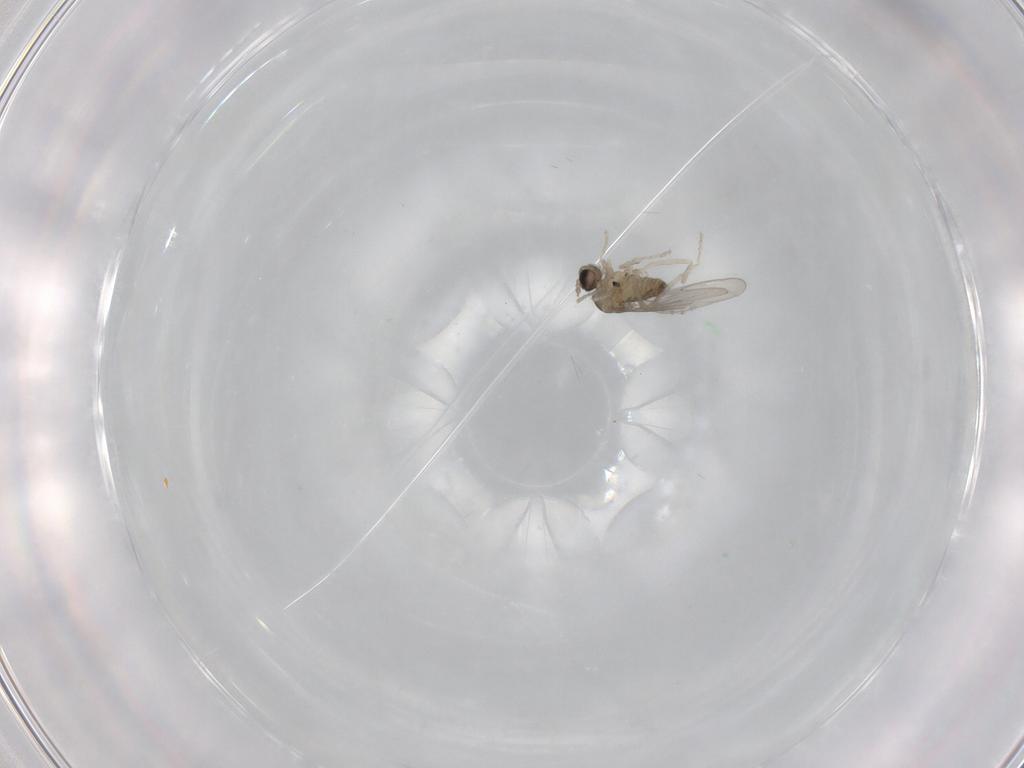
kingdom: Animalia
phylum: Arthropoda
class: Insecta
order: Diptera
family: Cecidomyiidae
